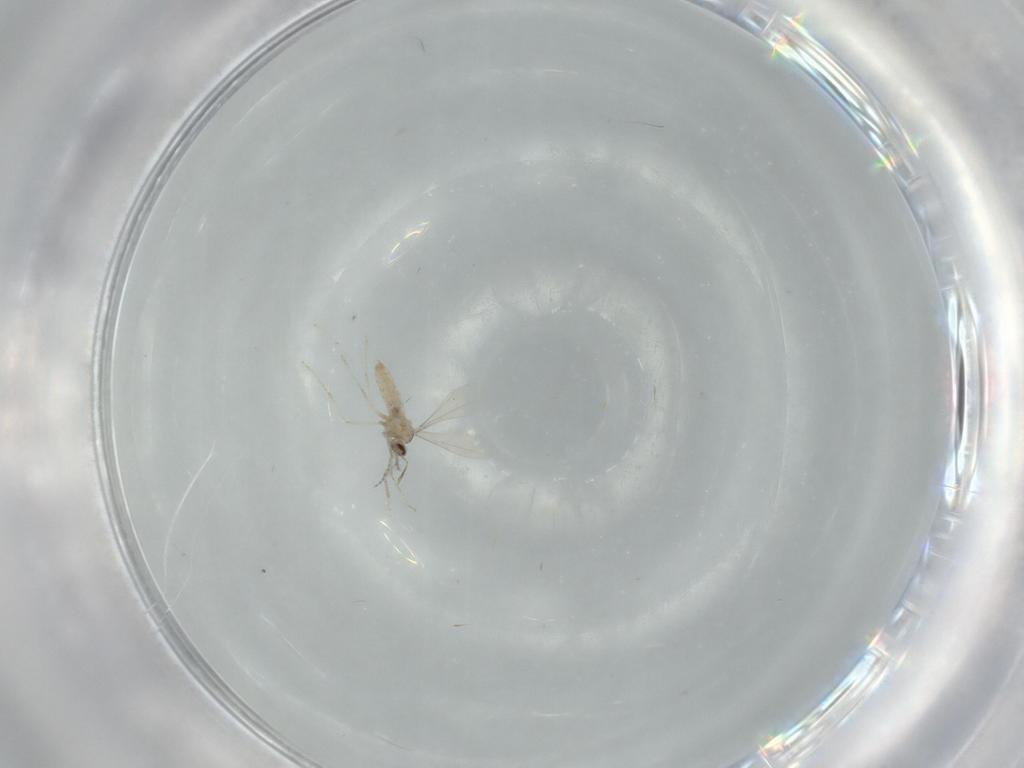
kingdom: Animalia
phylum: Arthropoda
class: Insecta
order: Diptera
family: Cecidomyiidae
